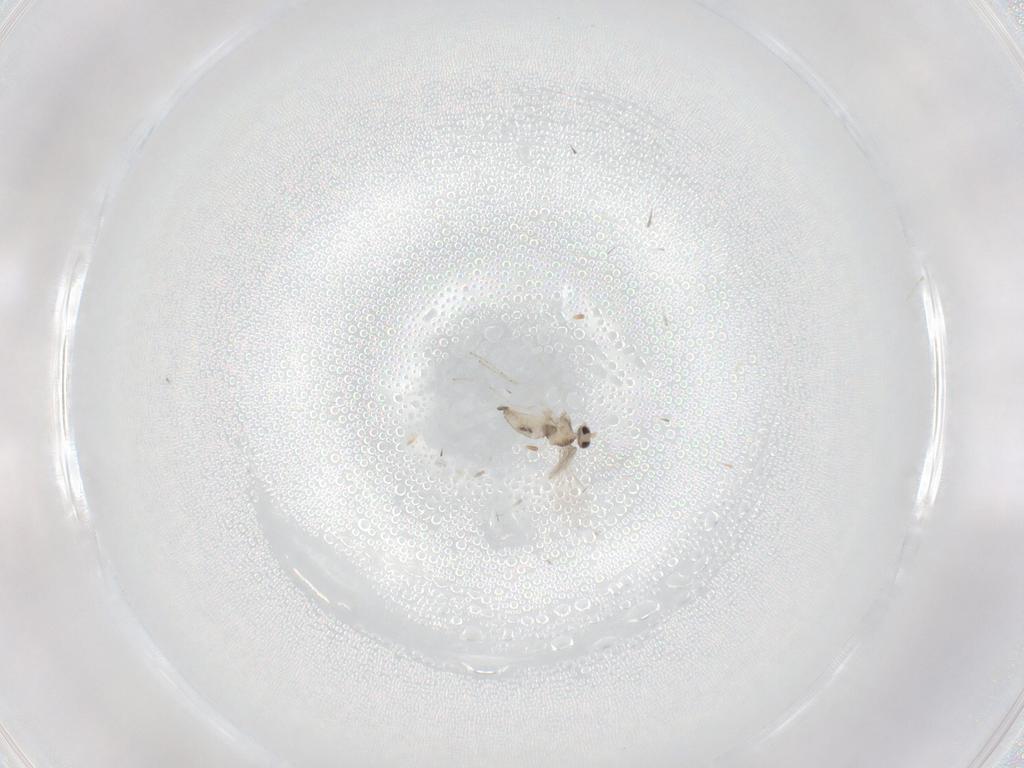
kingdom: Animalia
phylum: Arthropoda
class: Insecta
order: Diptera
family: Cecidomyiidae
